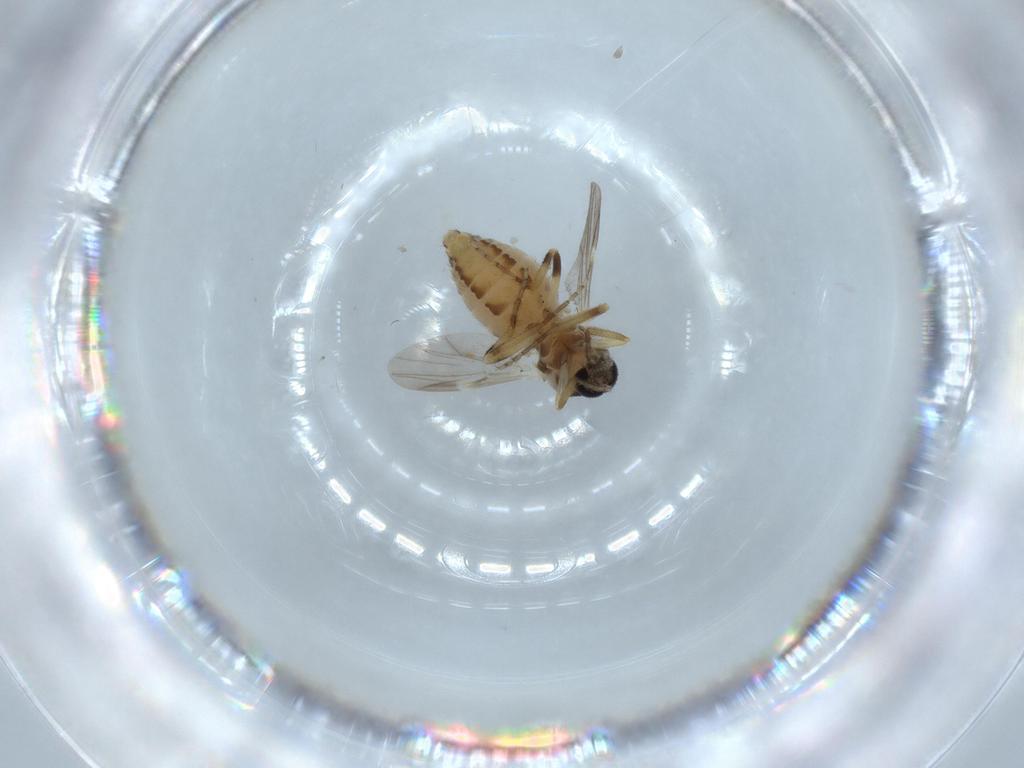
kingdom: Animalia
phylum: Arthropoda
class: Insecta
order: Diptera
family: Ceratopogonidae
